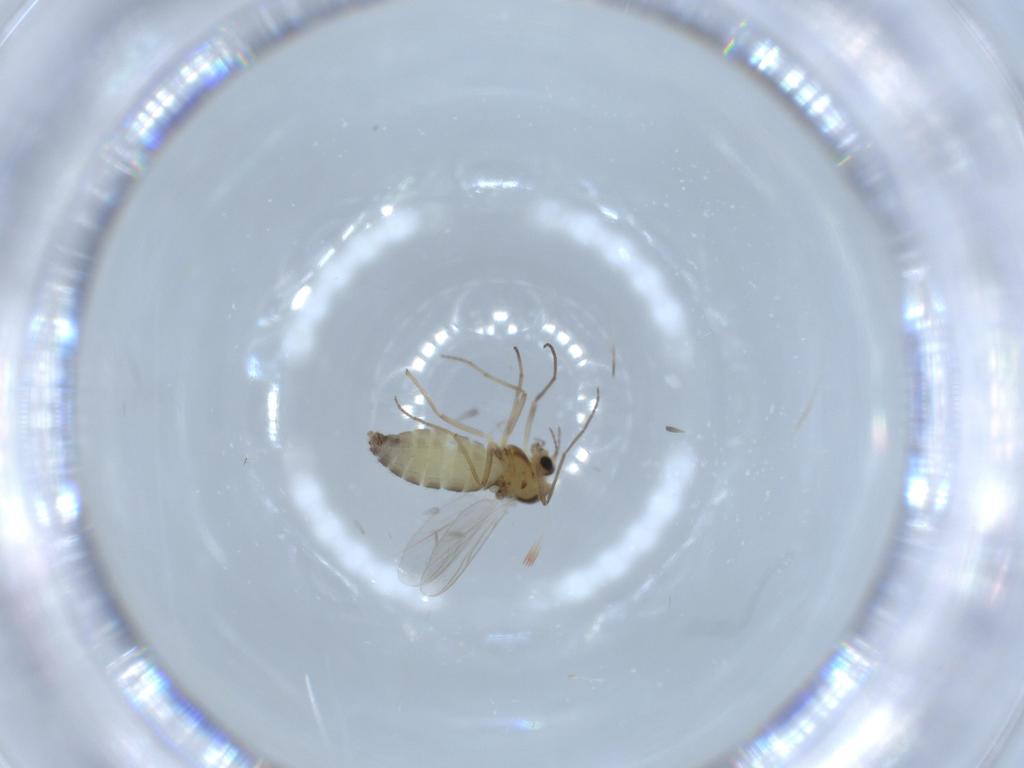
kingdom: Animalia
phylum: Arthropoda
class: Insecta
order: Diptera
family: Chironomidae
